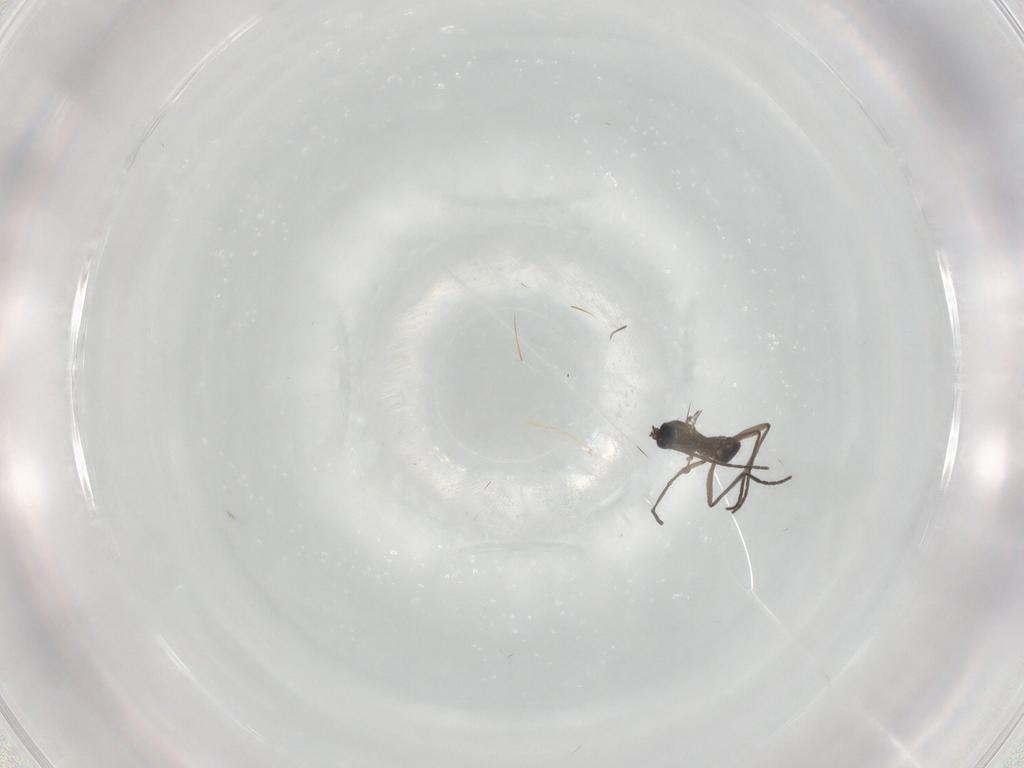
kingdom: Animalia
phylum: Arthropoda
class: Insecta
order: Diptera
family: Sciaridae
